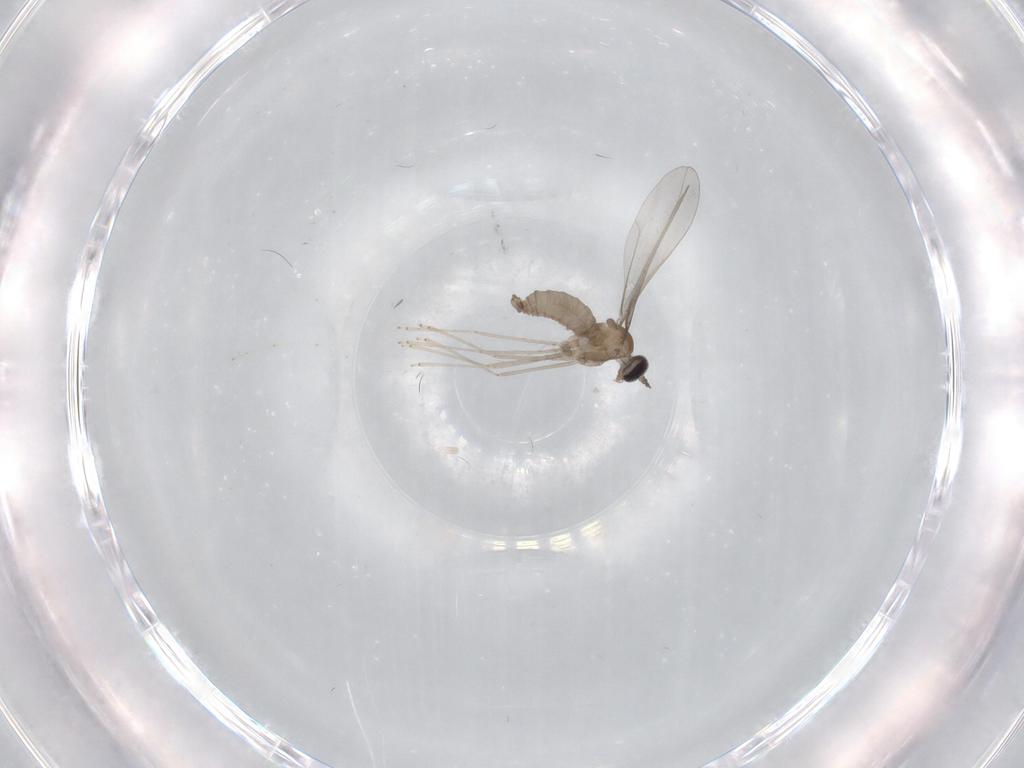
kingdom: Animalia
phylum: Arthropoda
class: Insecta
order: Diptera
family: Cecidomyiidae
